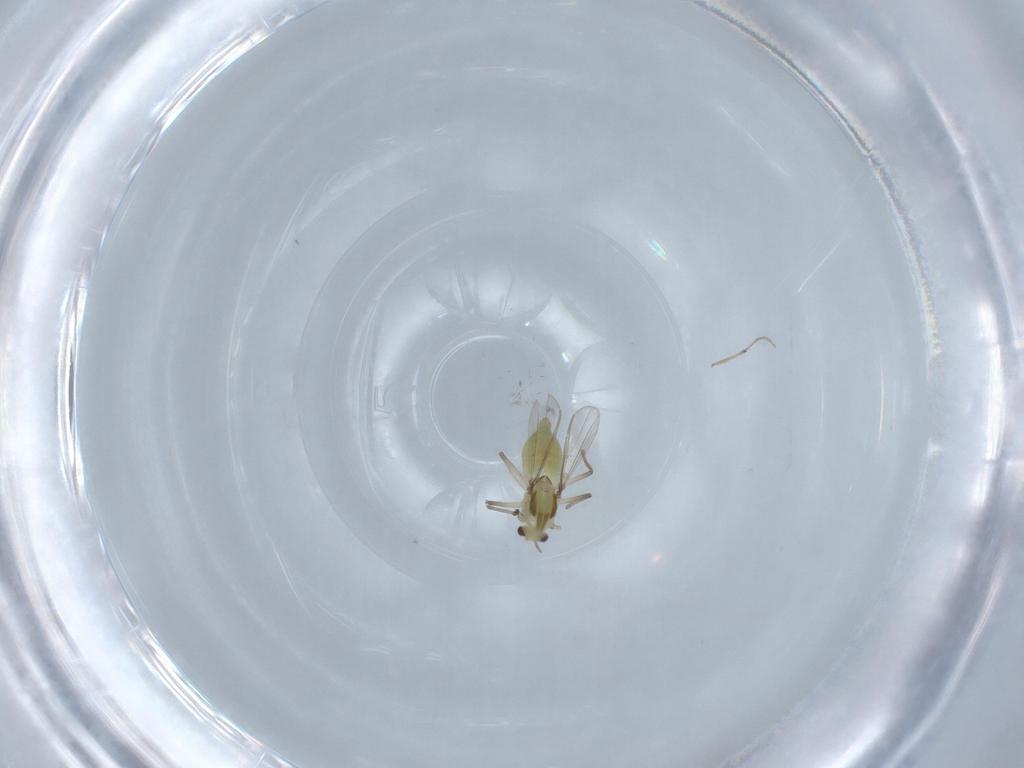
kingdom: Animalia
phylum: Arthropoda
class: Insecta
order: Diptera
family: Chironomidae
